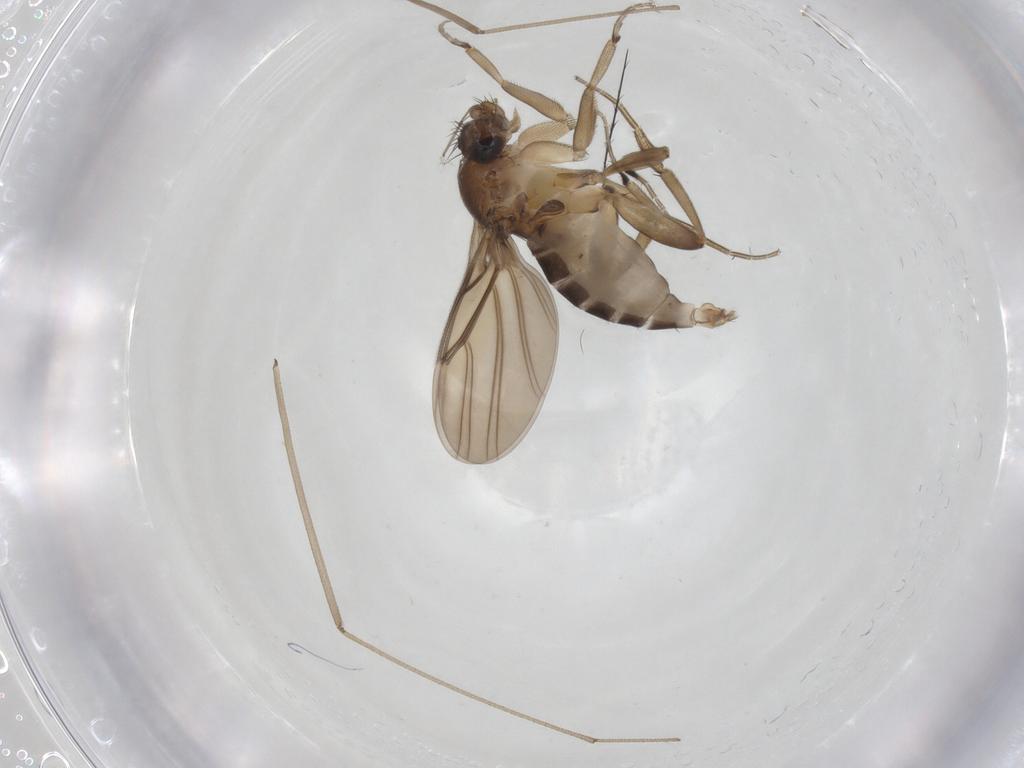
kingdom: Animalia
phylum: Arthropoda
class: Insecta
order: Diptera
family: Limoniidae
